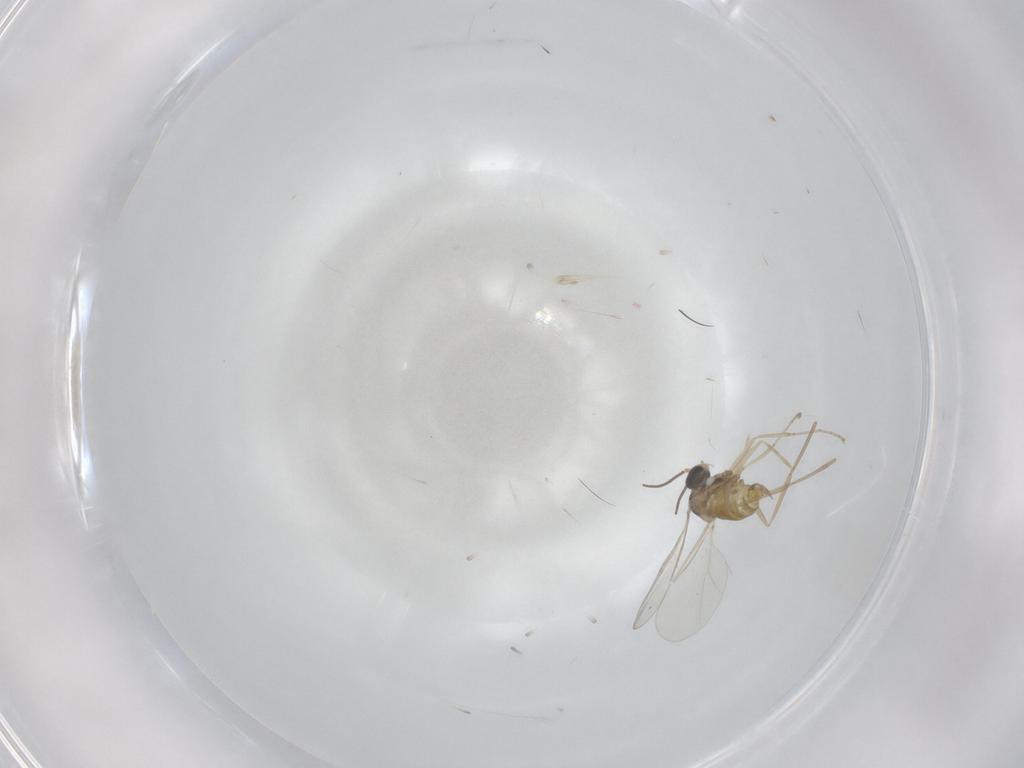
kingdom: Animalia
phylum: Arthropoda
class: Insecta
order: Diptera
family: Cecidomyiidae
